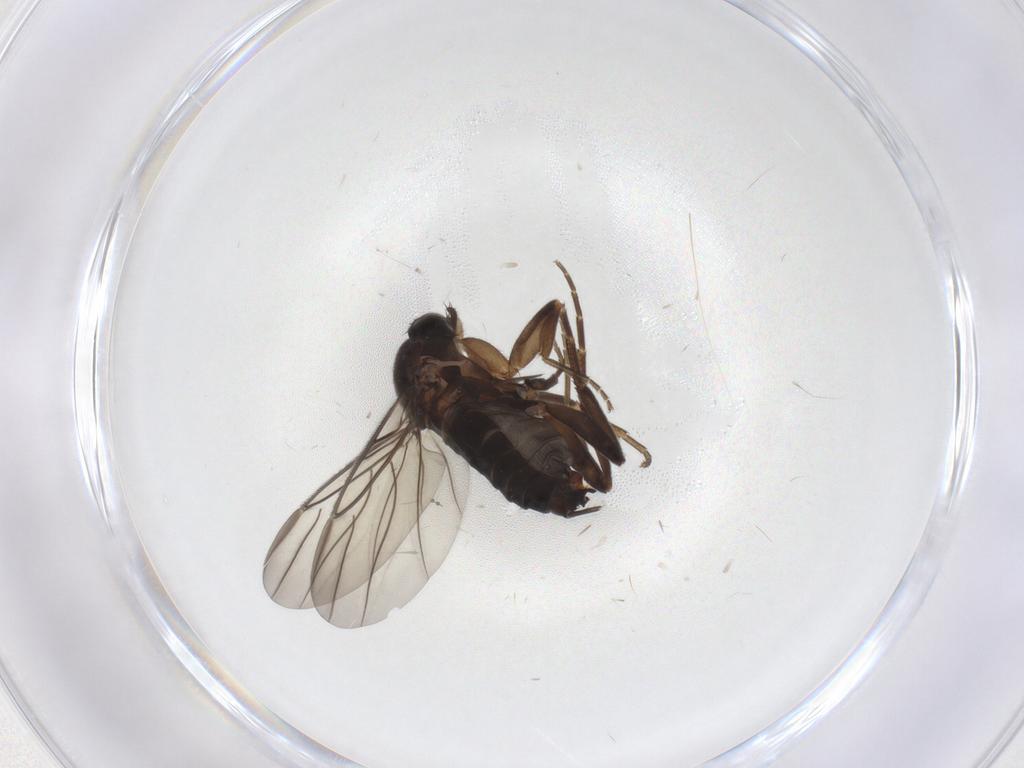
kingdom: Animalia
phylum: Arthropoda
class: Insecta
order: Diptera
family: Phoridae
